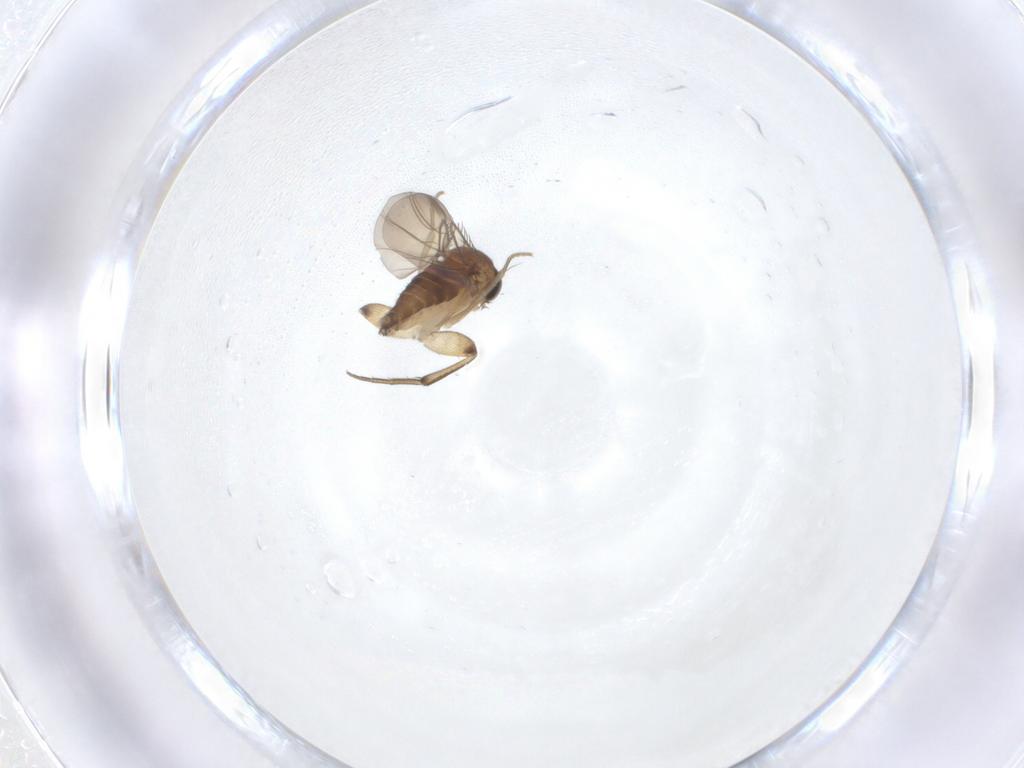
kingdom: Animalia
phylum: Arthropoda
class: Insecta
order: Diptera
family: Phoridae
